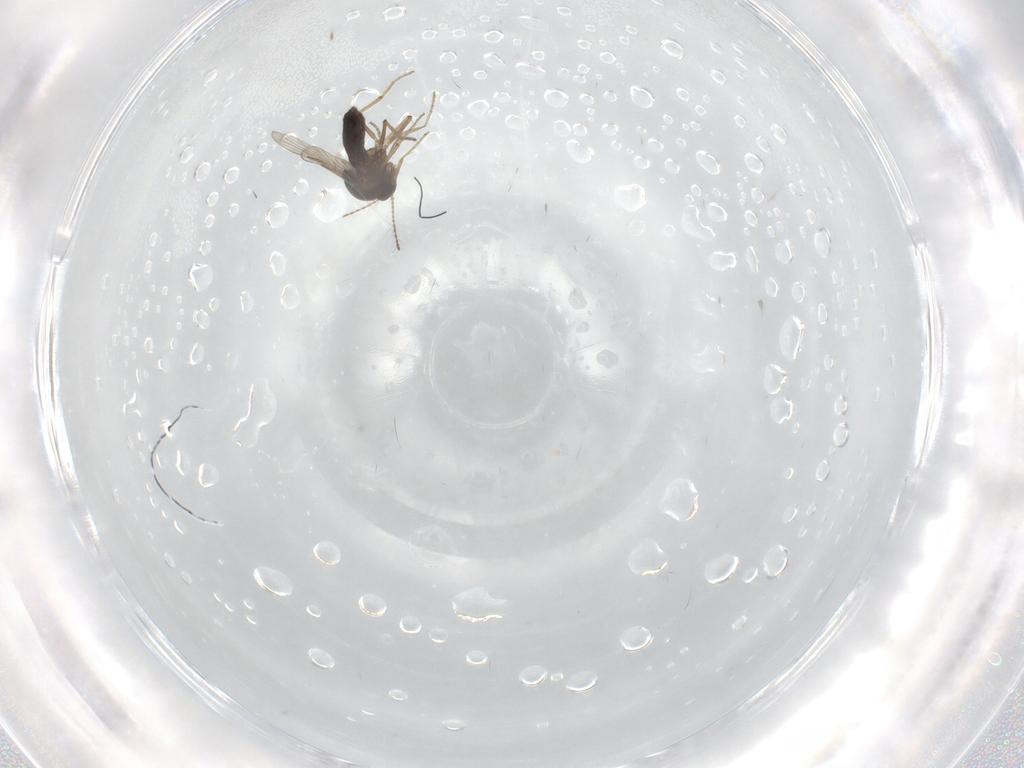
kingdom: Animalia
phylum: Arthropoda
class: Insecta
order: Diptera
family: Ceratopogonidae
